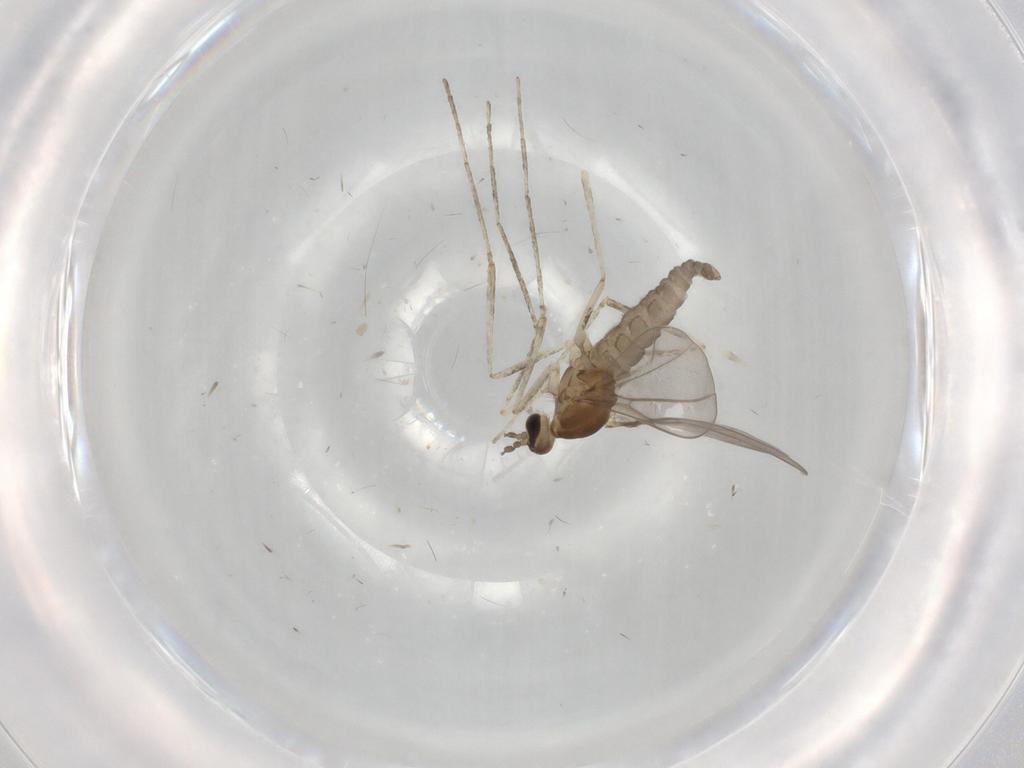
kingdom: Animalia
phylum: Arthropoda
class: Insecta
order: Diptera
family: Cecidomyiidae
